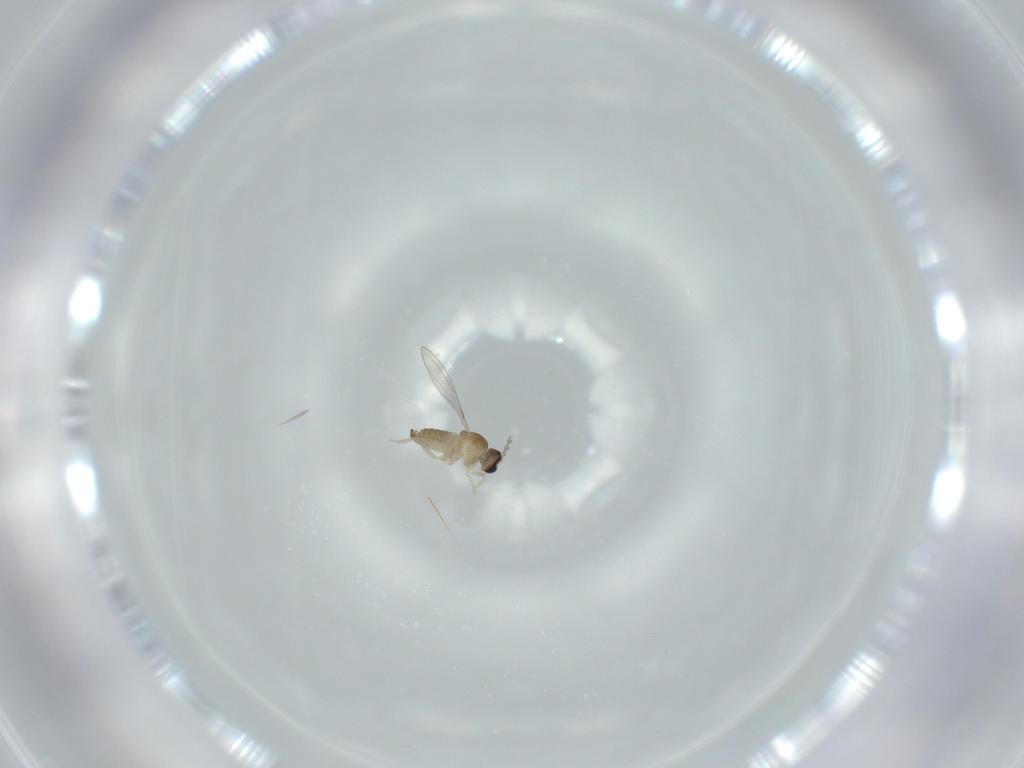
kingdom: Animalia
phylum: Arthropoda
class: Insecta
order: Diptera
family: Cecidomyiidae
